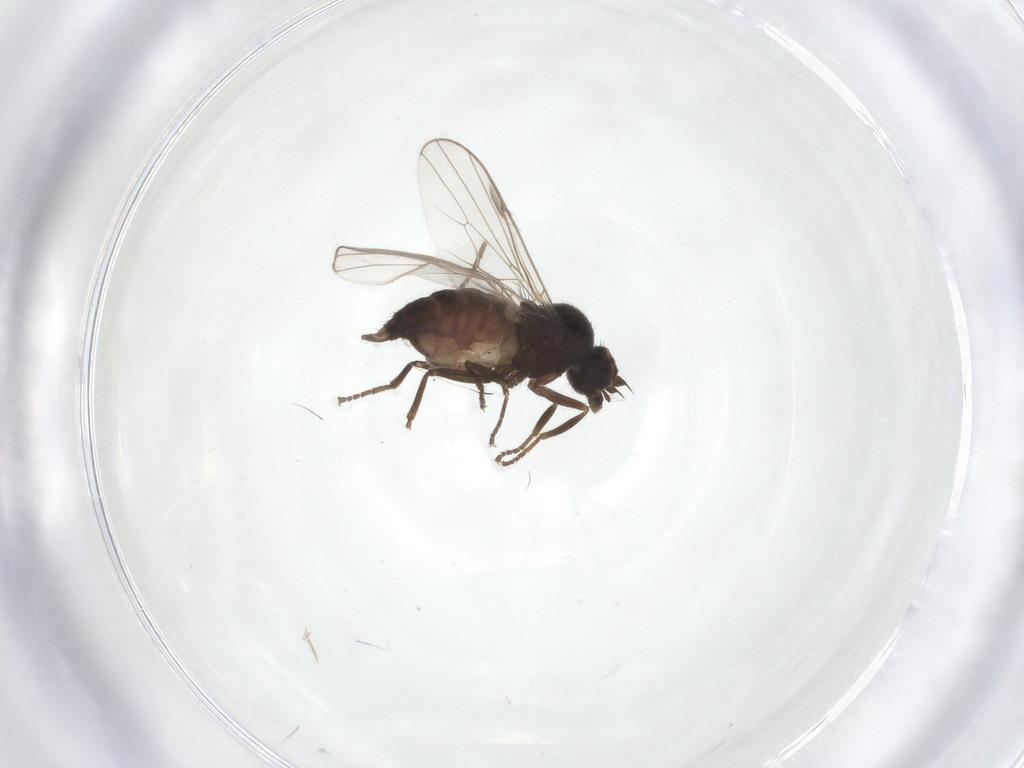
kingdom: Animalia
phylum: Arthropoda
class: Insecta
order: Diptera
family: Hybotidae
